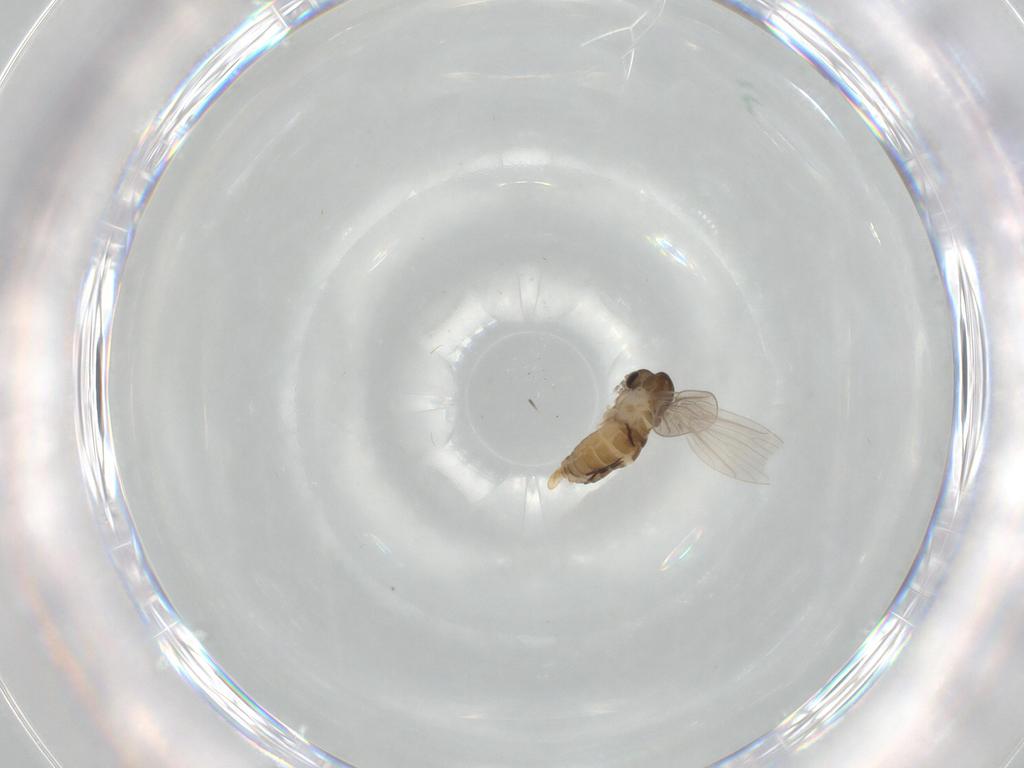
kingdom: Animalia
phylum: Arthropoda
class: Insecta
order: Diptera
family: Psychodidae
